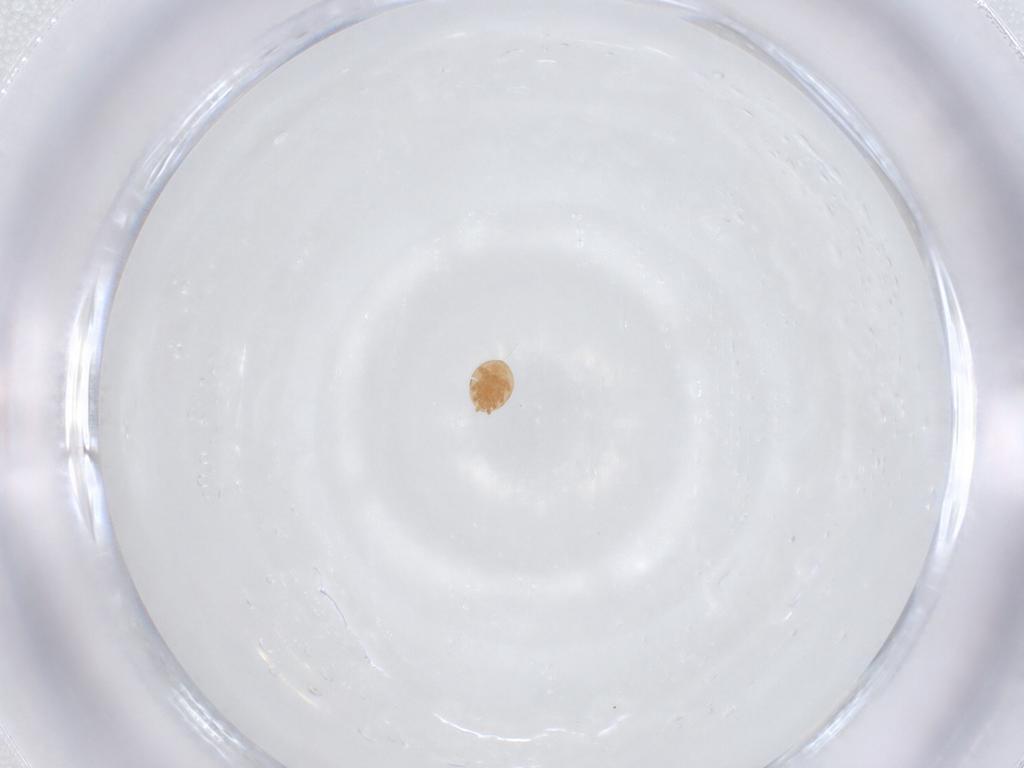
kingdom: Animalia
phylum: Arthropoda
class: Arachnida
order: Mesostigmata
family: Trematuridae
